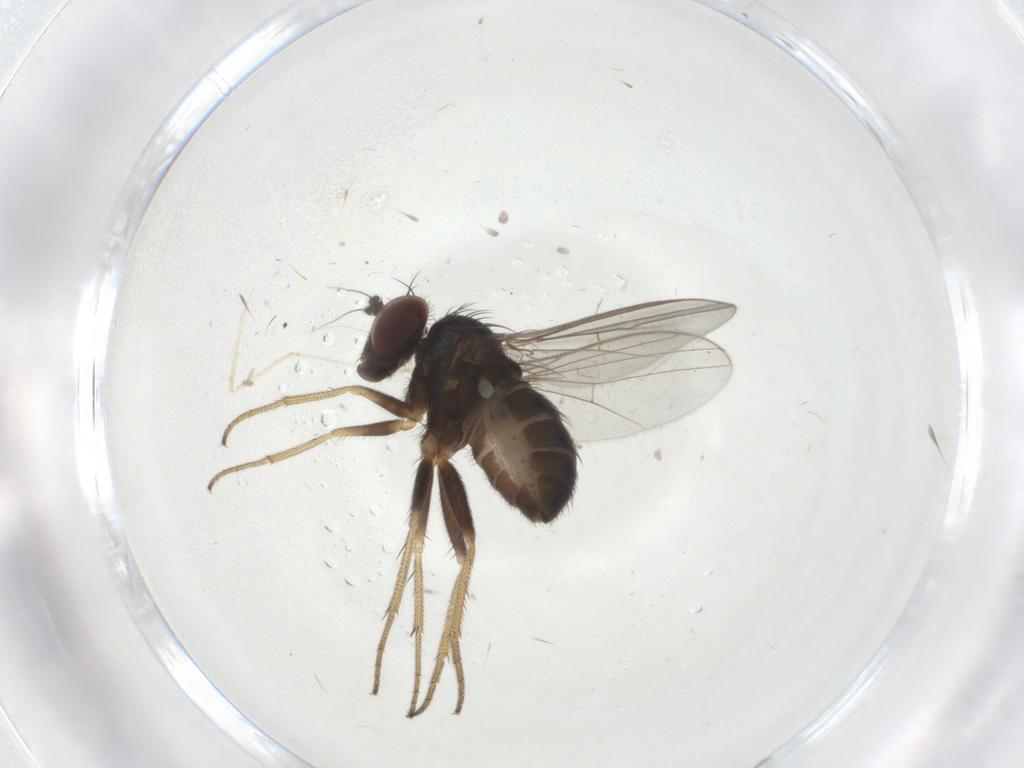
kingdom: Animalia
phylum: Arthropoda
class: Insecta
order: Diptera
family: Cecidomyiidae
